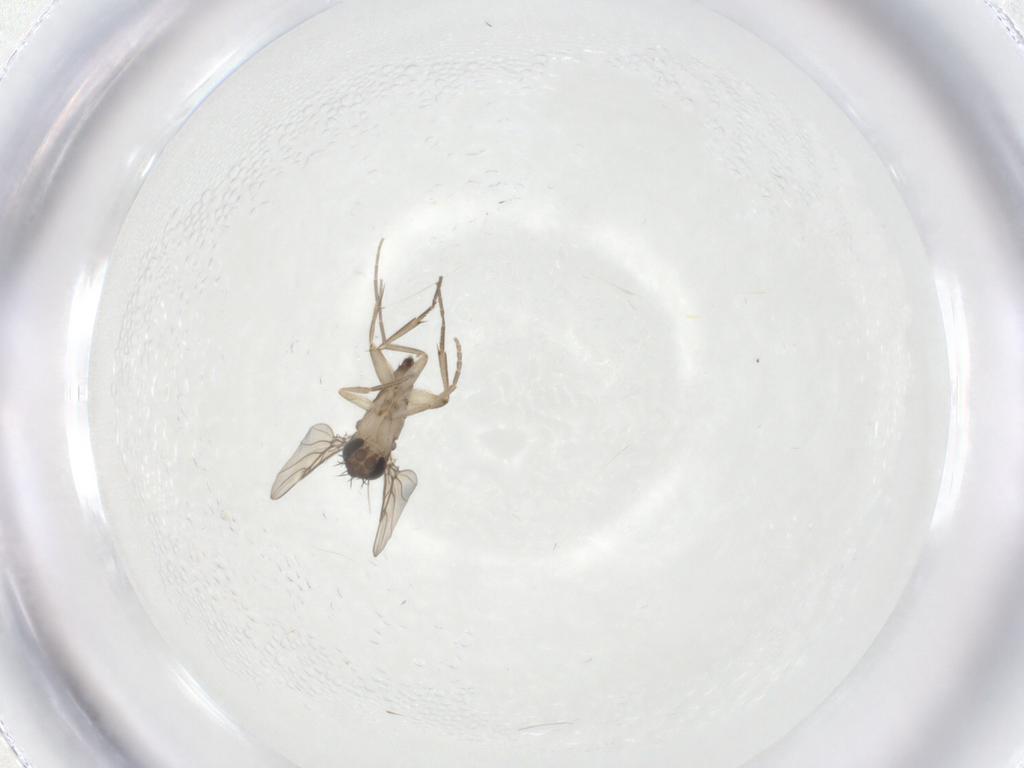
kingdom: Animalia
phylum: Arthropoda
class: Insecta
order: Diptera
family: Phoridae
